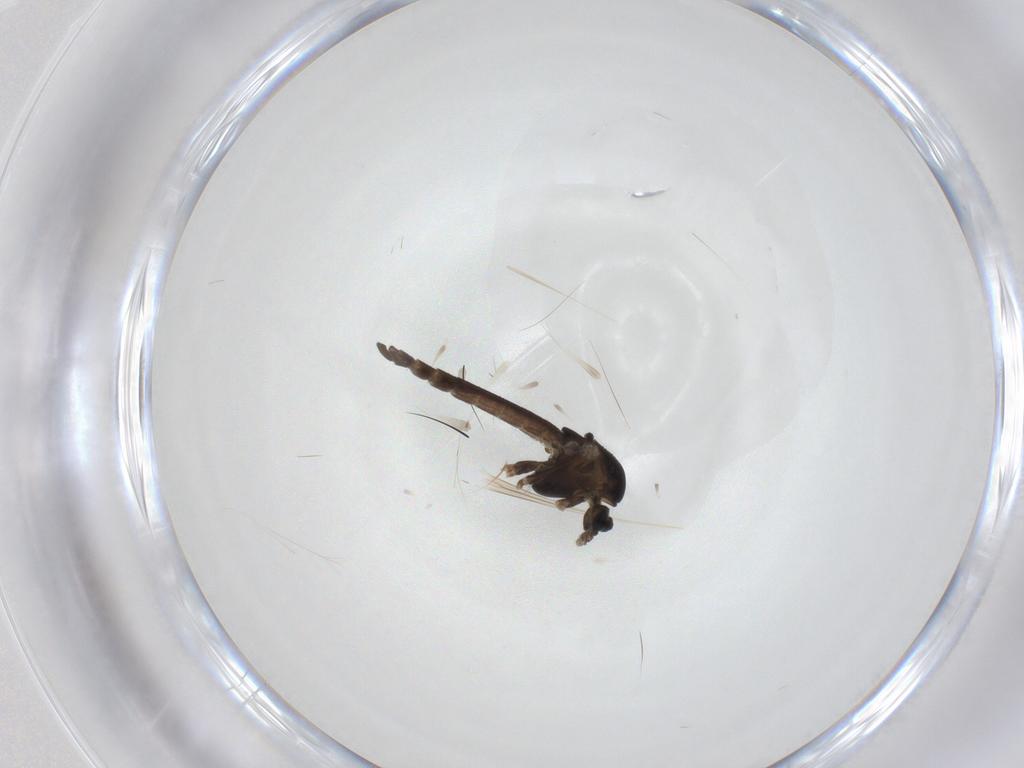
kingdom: Animalia
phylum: Arthropoda
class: Insecta
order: Diptera
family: Chironomidae
